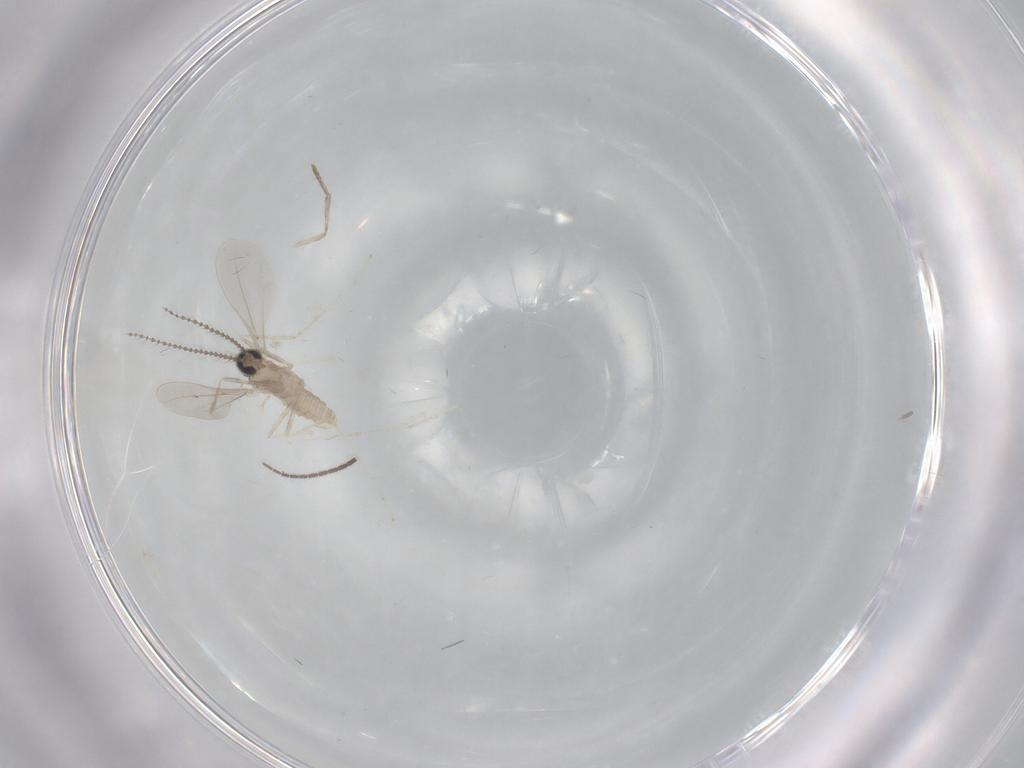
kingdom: Animalia
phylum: Arthropoda
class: Insecta
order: Diptera
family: Cecidomyiidae
